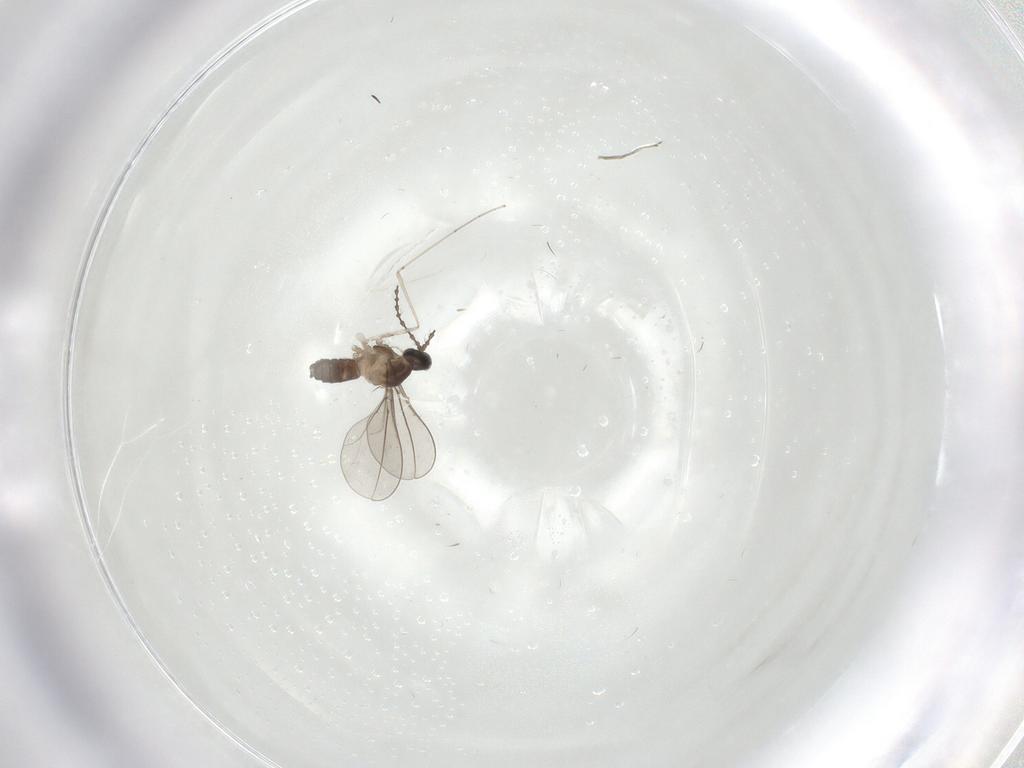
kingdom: Animalia
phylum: Arthropoda
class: Insecta
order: Diptera
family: Cecidomyiidae
